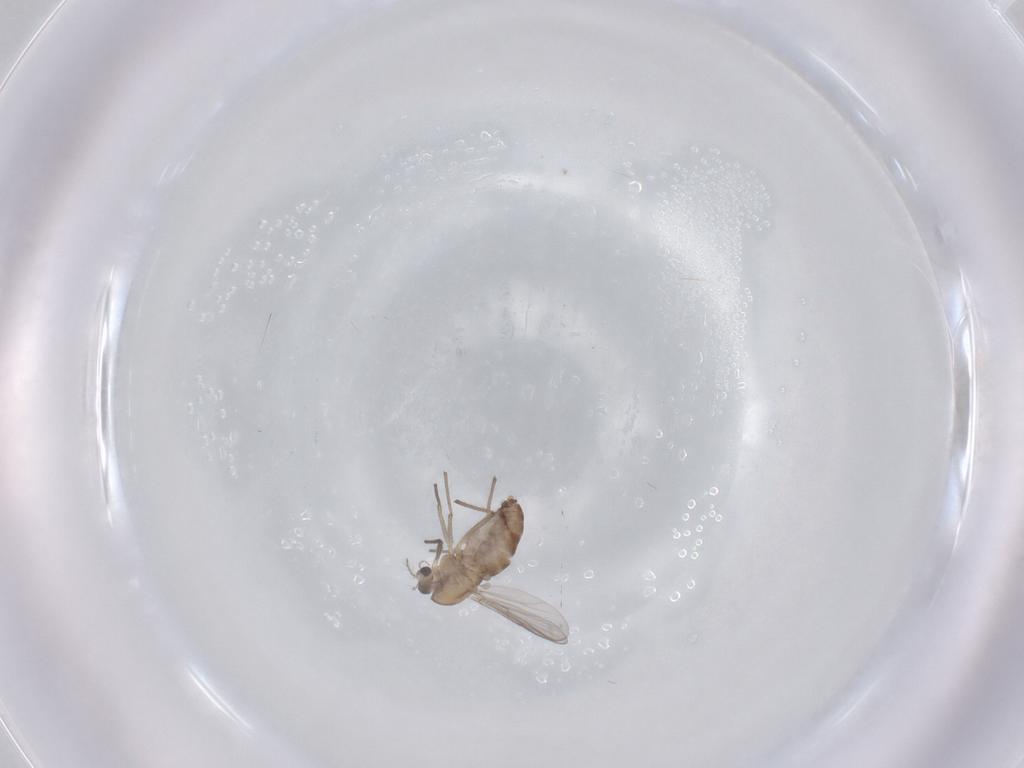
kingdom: Animalia
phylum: Arthropoda
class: Insecta
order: Diptera
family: Chironomidae
